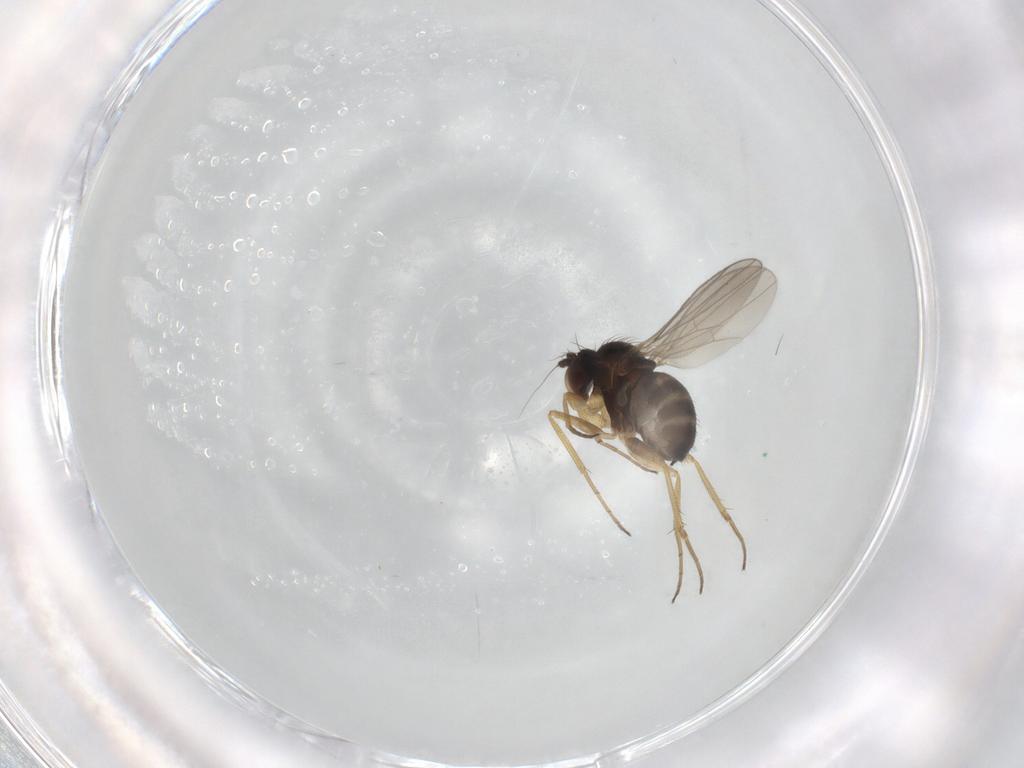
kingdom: Animalia
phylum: Arthropoda
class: Insecta
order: Diptera
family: Dolichopodidae
